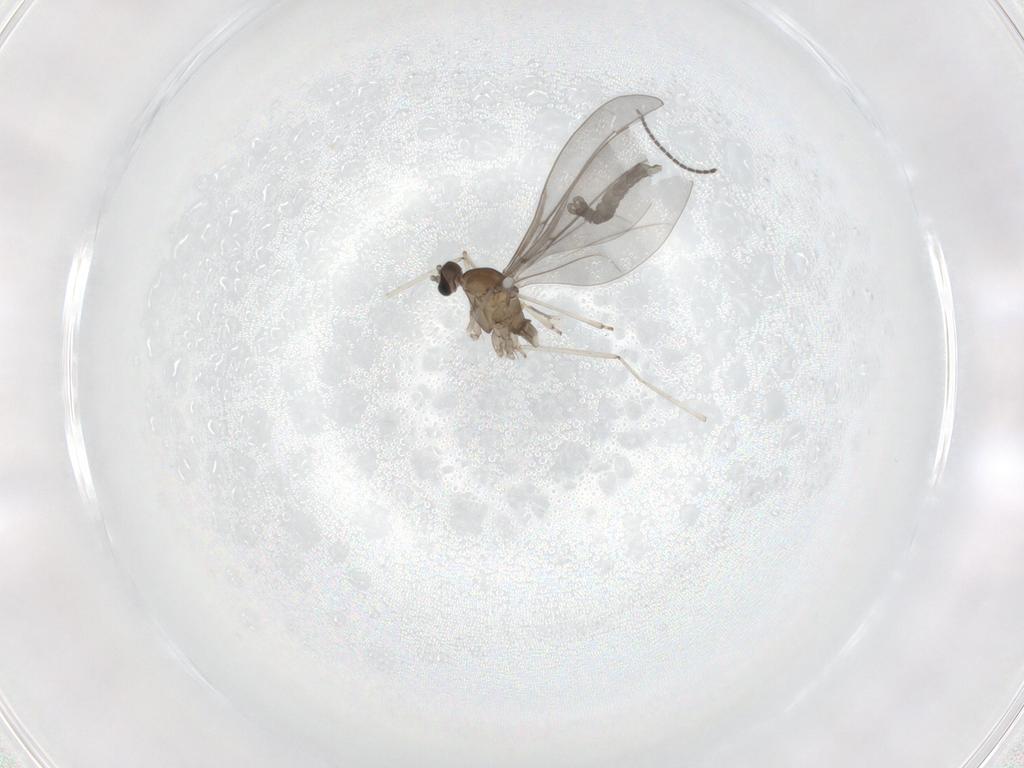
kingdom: Animalia
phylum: Arthropoda
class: Insecta
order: Diptera
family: Cecidomyiidae
